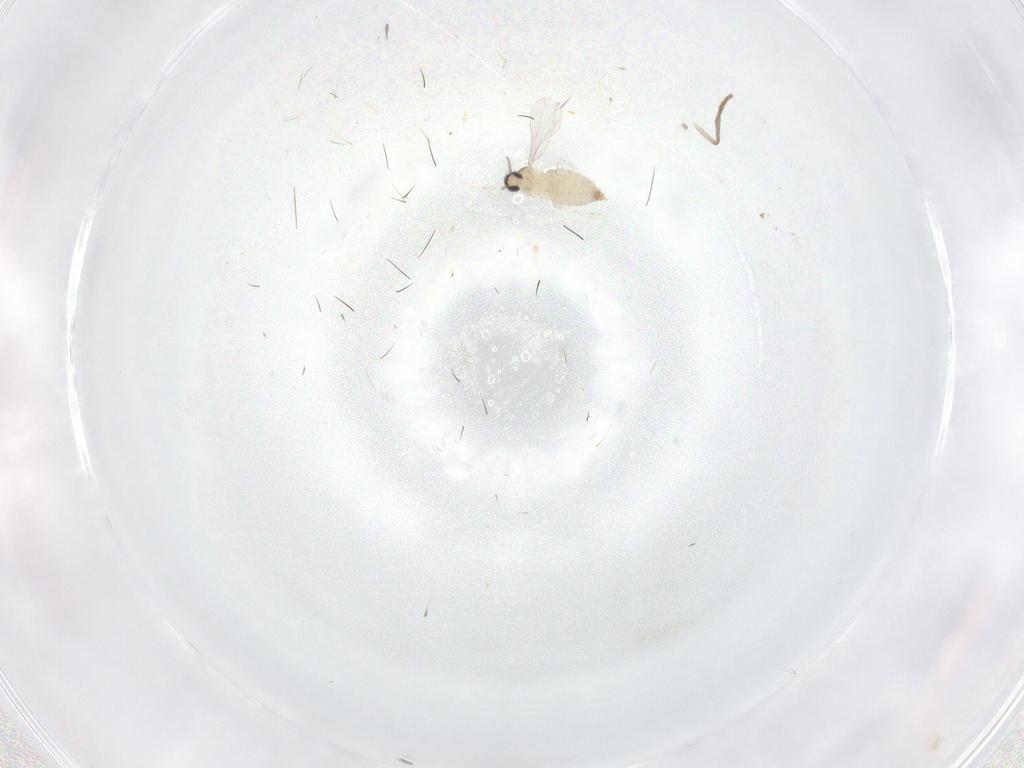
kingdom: Animalia
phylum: Arthropoda
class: Insecta
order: Diptera
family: Psychodidae
